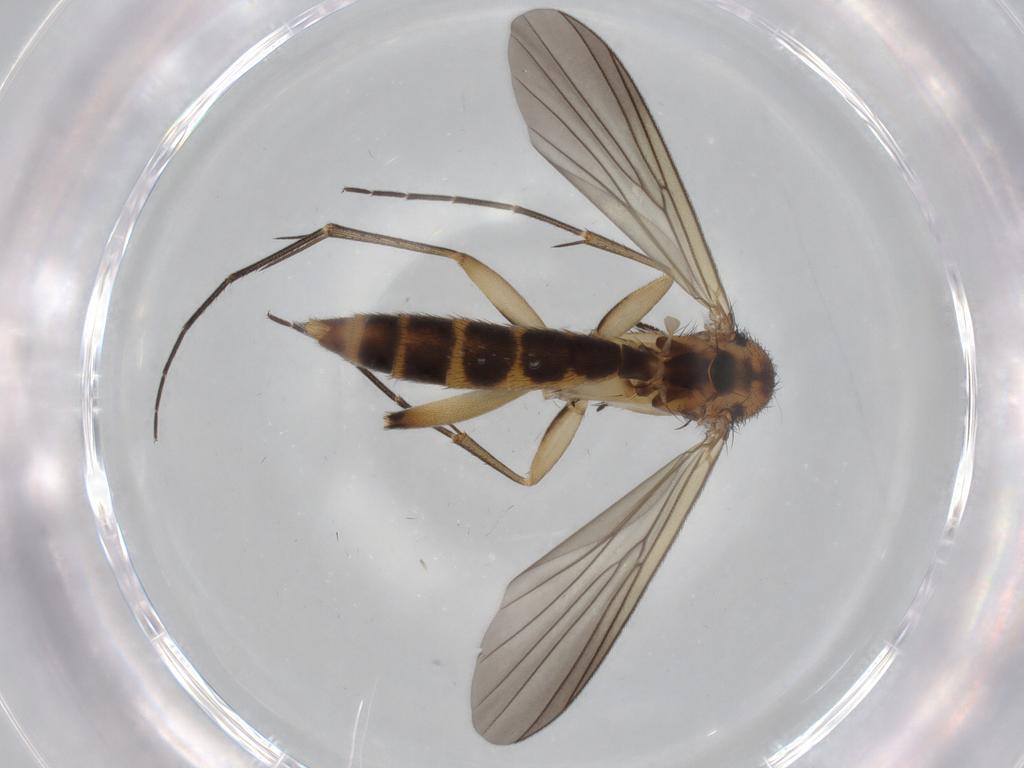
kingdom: Animalia
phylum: Arthropoda
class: Insecta
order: Diptera
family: Mycetophilidae
